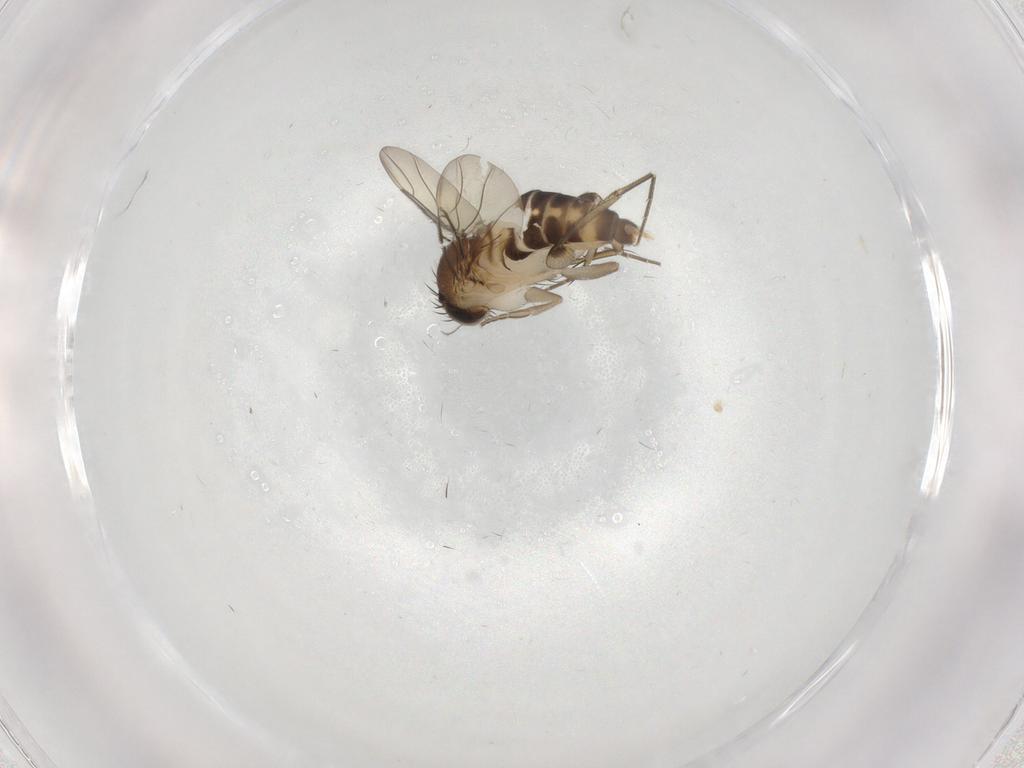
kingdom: Animalia
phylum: Arthropoda
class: Insecta
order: Diptera
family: Phoridae
